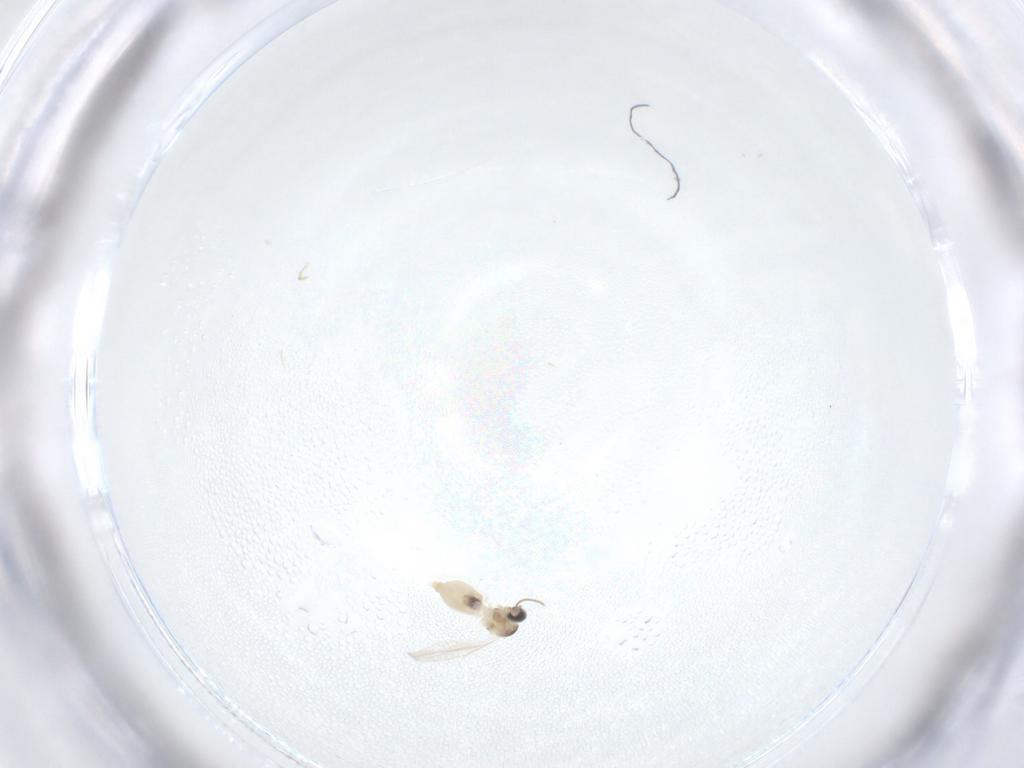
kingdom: Animalia
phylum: Arthropoda
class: Insecta
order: Diptera
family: Cecidomyiidae
